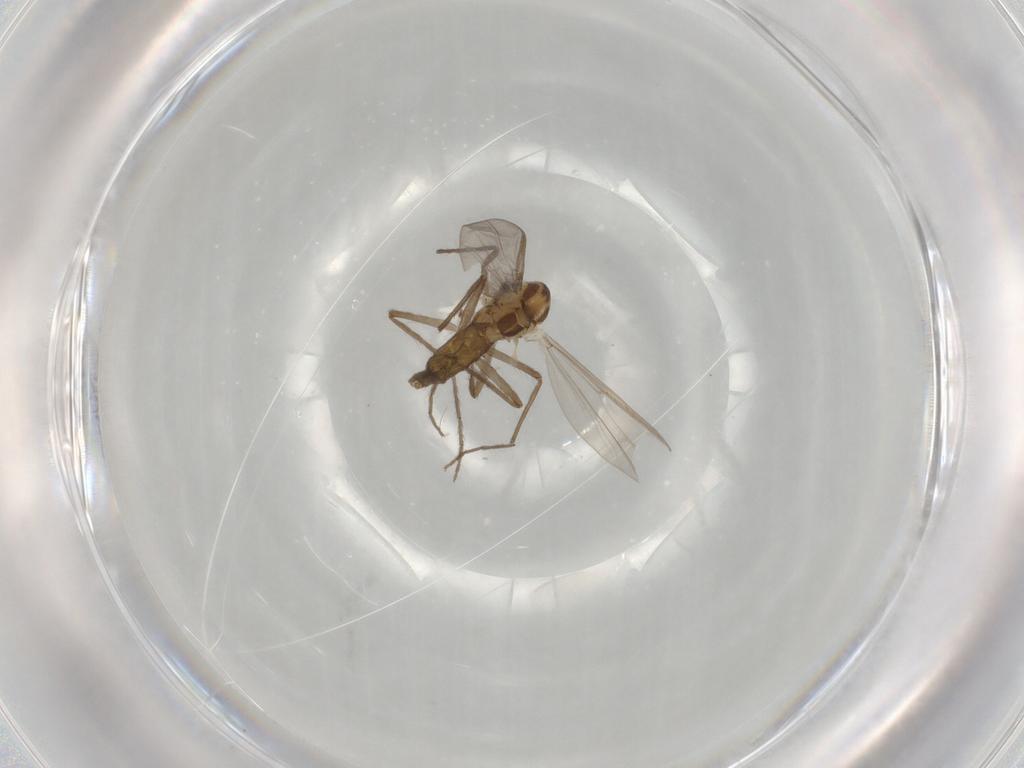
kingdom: Animalia
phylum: Arthropoda
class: Insecta
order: Diptera
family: Chironomidae
